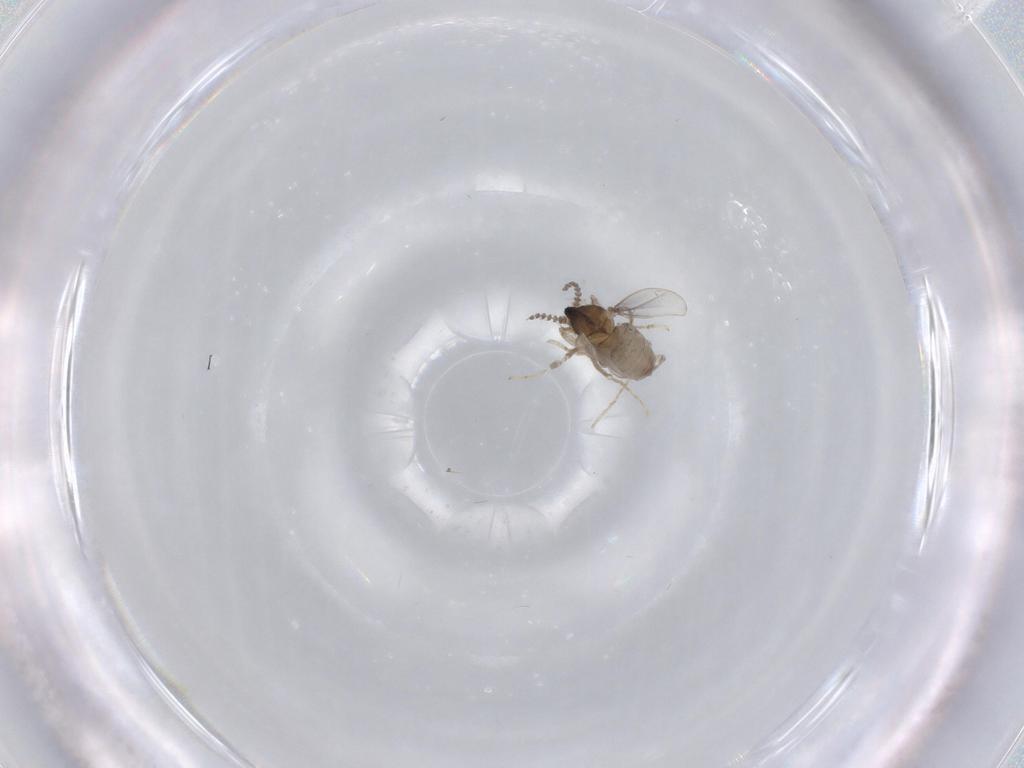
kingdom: Animalia
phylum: Arthropoda
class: Insecta
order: Diptera
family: Cecidomyiidae
